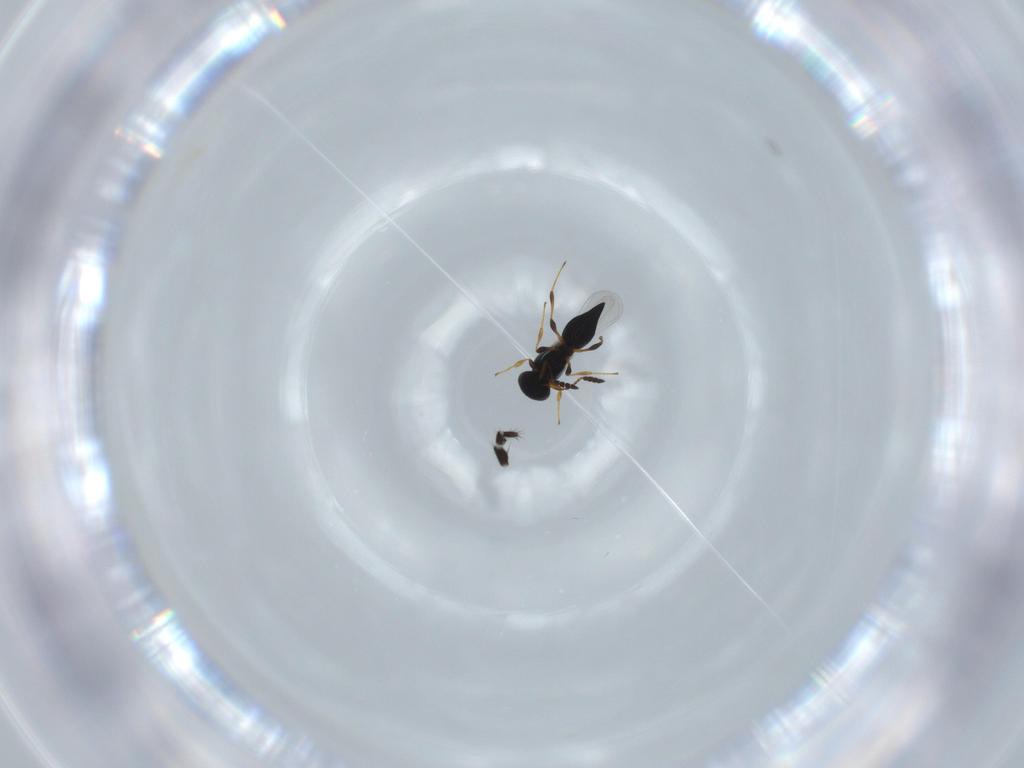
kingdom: Animalia
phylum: Arthropoda
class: Insecta
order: Hymenoptera
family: Platygastridae
